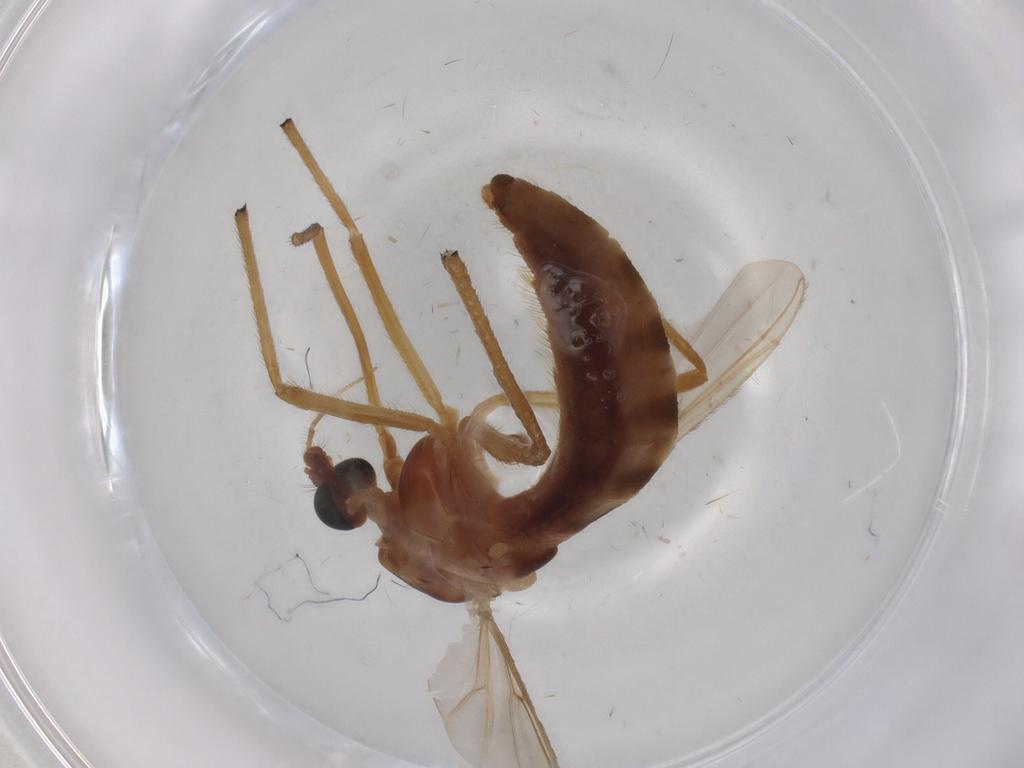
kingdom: Animalia
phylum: Arthropoda
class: Insecta
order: Diptera
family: Chironomidae
